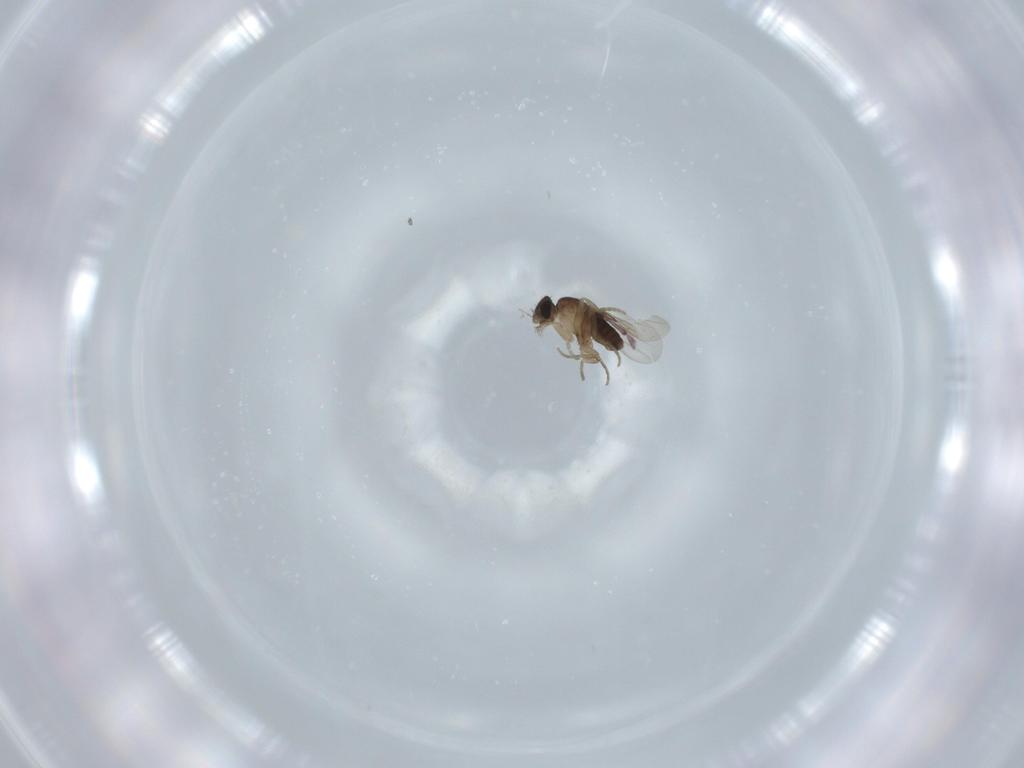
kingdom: Animalia
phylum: Arthropoda
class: Insecta
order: Diptera
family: Phoridae
